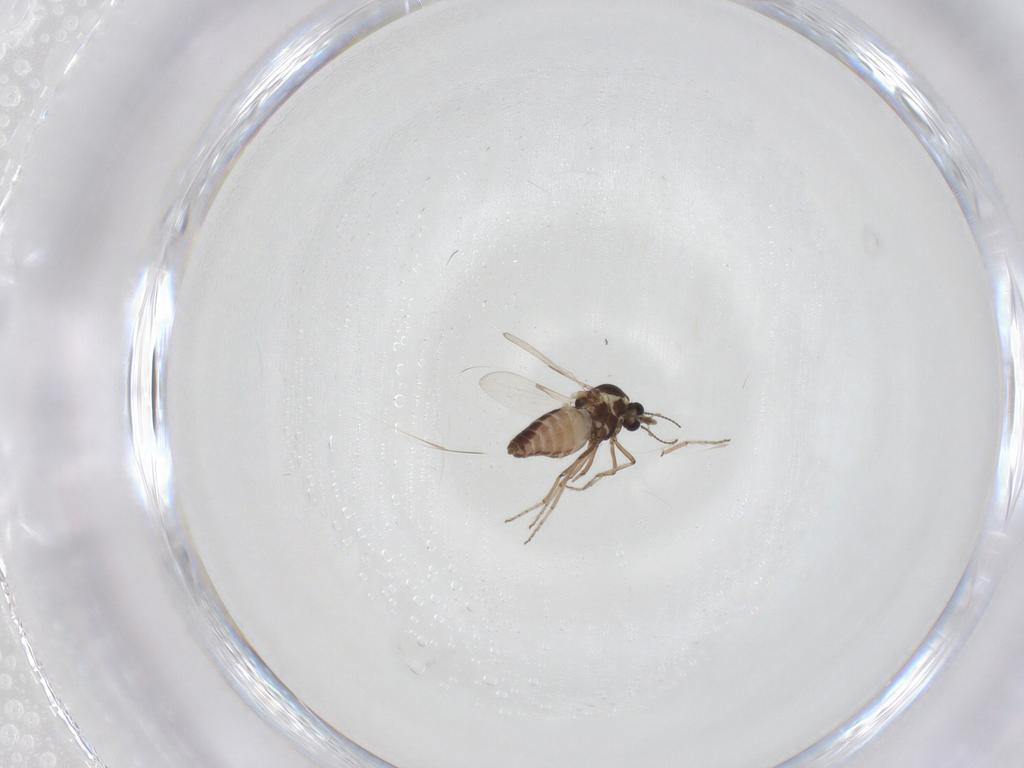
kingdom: Animalia
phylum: Arthropoda
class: Insecta
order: Diptera
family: Ceratopogonidae
